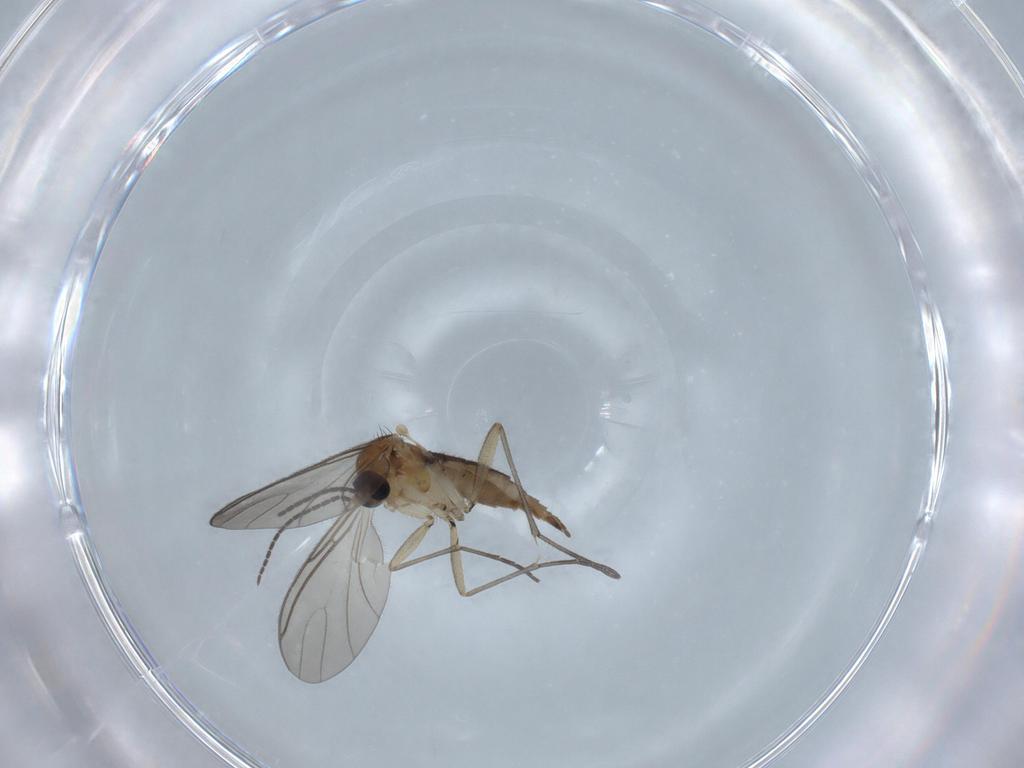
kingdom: Animalia
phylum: Arthropoda
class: Insecta
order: Diptera
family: Sciaridae
